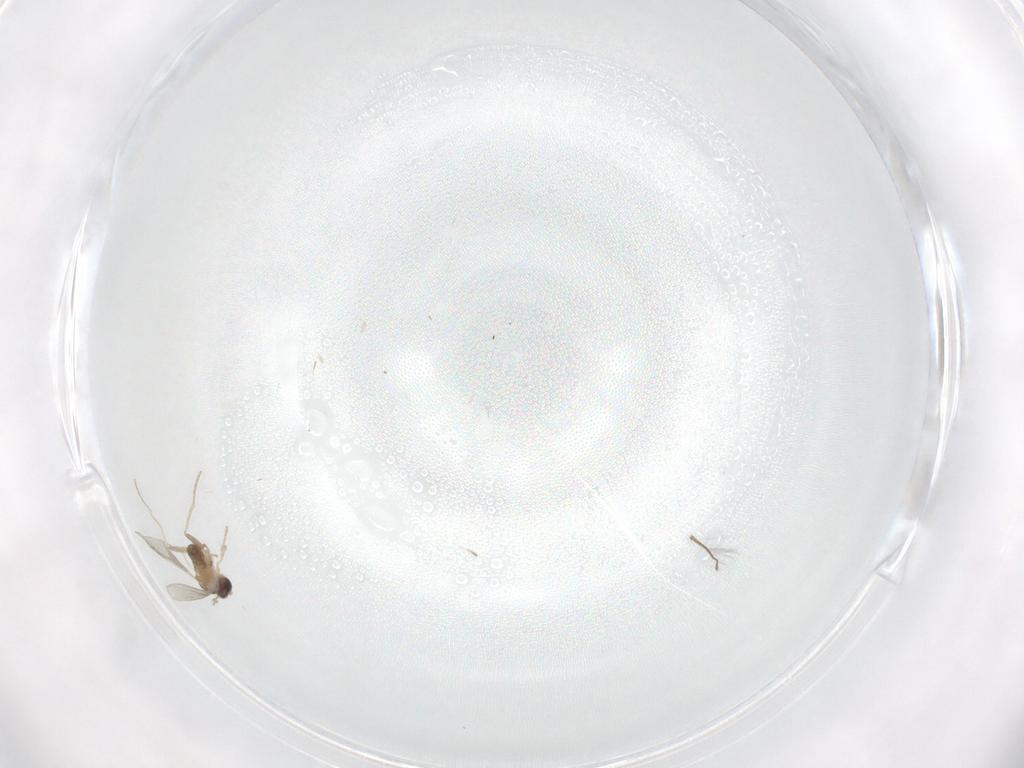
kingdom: Animalia
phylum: Arthropoda
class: Insecta
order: Diptera
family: Cecidomyiidae
